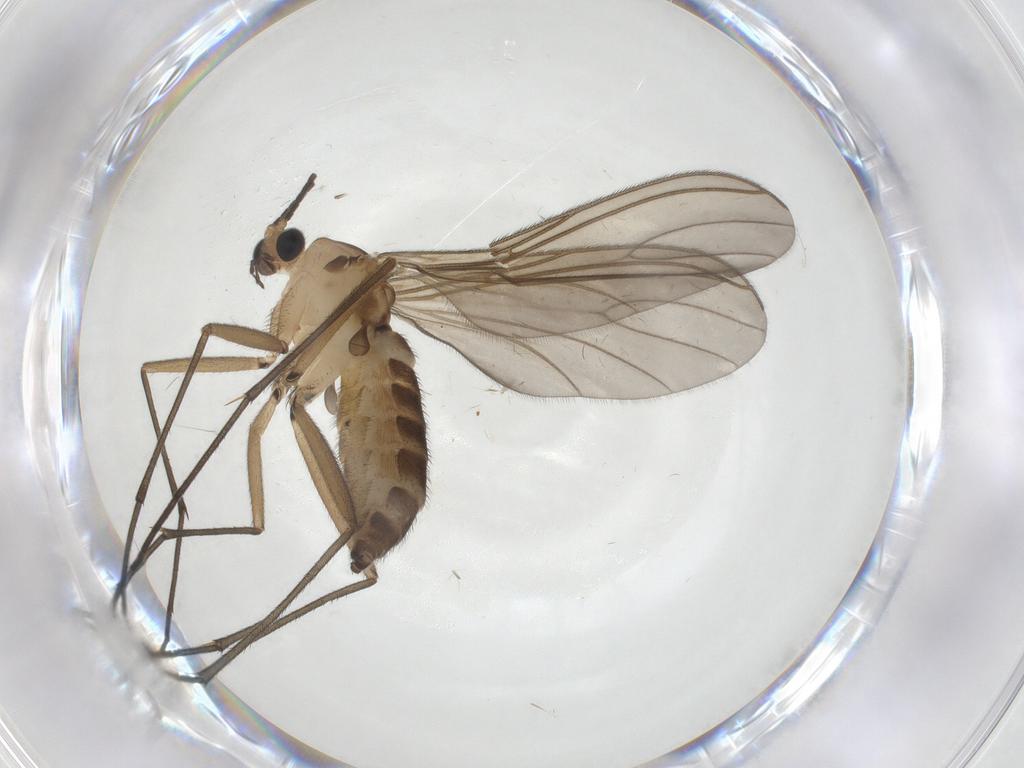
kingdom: Animalia
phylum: Arthropoda
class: Insecta
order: Diptera
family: Sciaridae
